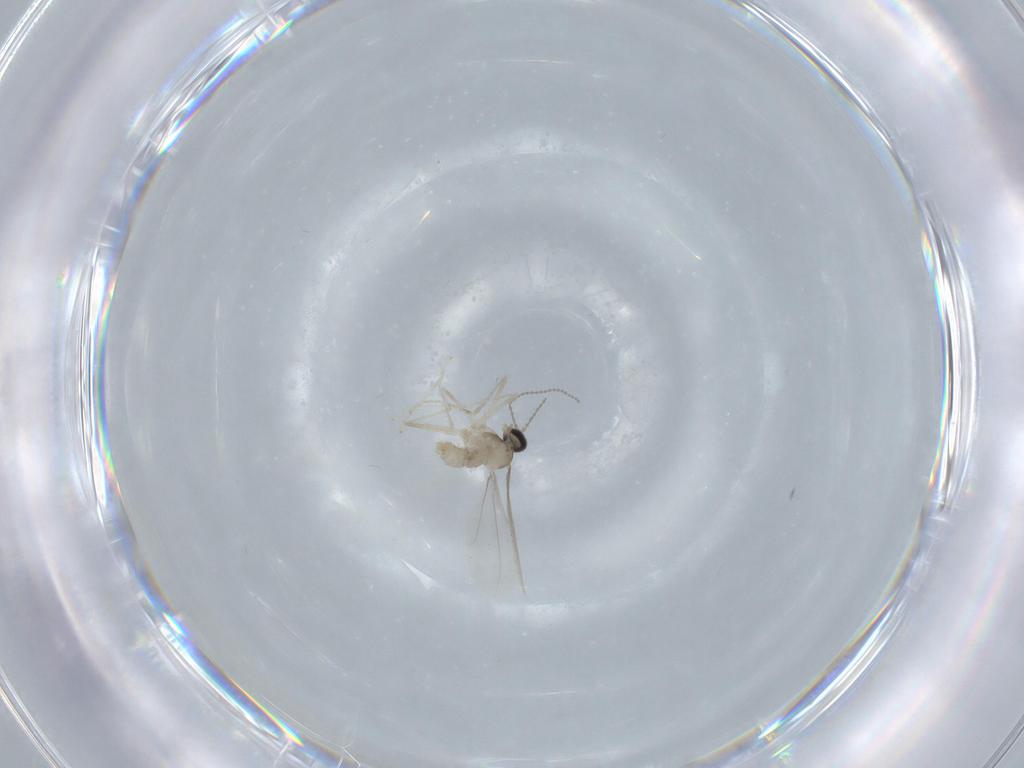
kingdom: Animalia
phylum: Arthropoda
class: Insecta
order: Diptera
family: Cecidomyiidae
